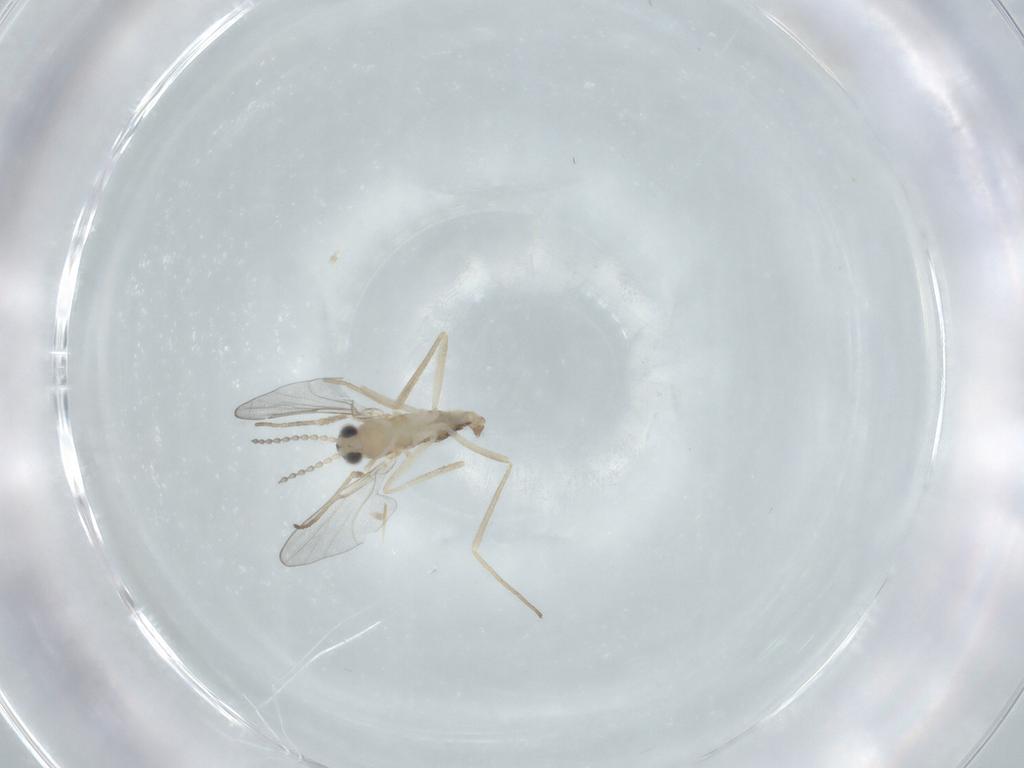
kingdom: Animalia
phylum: Arthropoda
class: Insecta
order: Diptera
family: Cecidomyiidae
